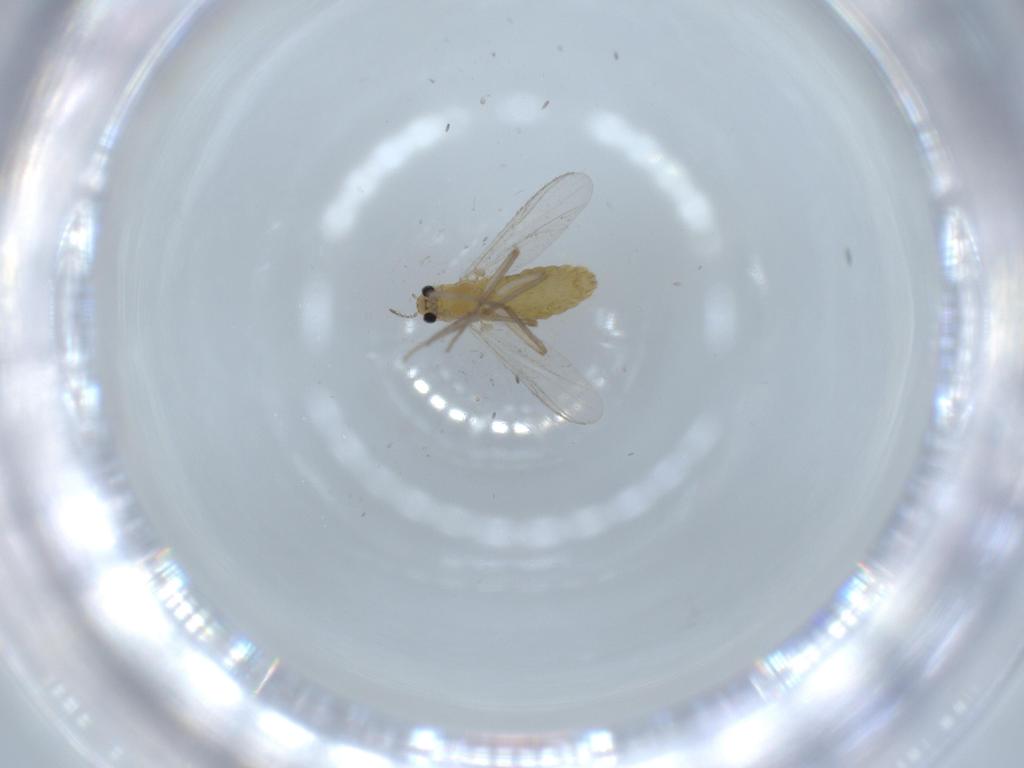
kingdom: Animalia
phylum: Arthropoda
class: Insecta
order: Diptera
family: Chironomidae
